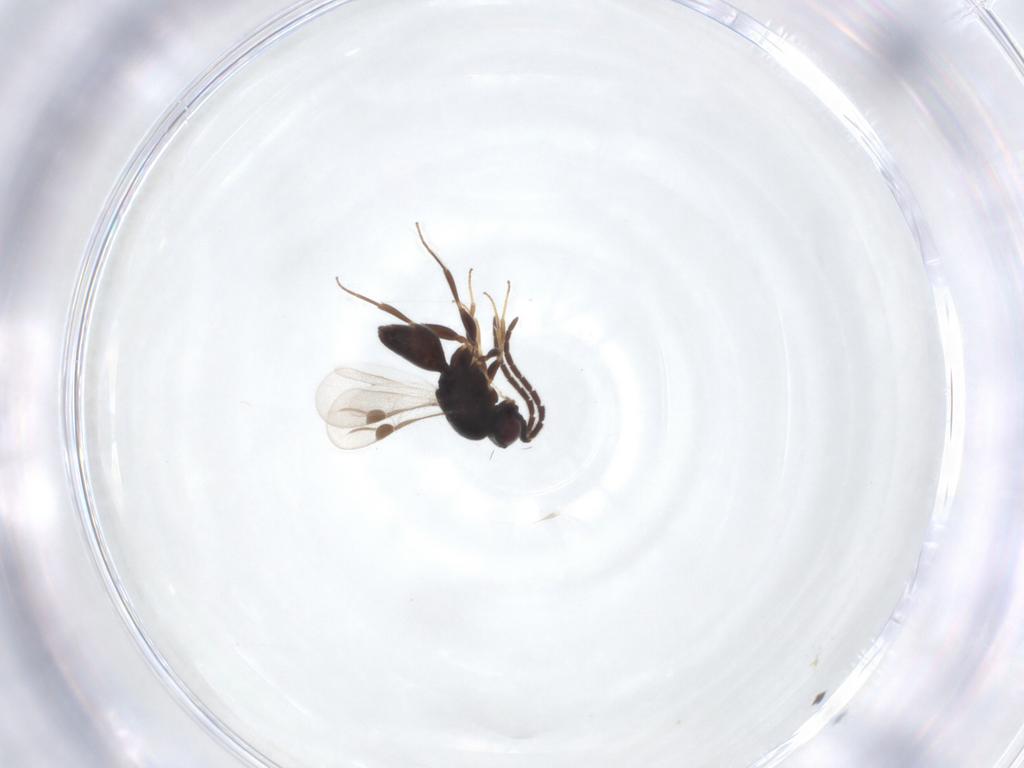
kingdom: Animalia
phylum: Arthropoda
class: Insecta
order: Hymenoptera
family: Megaspilidae
